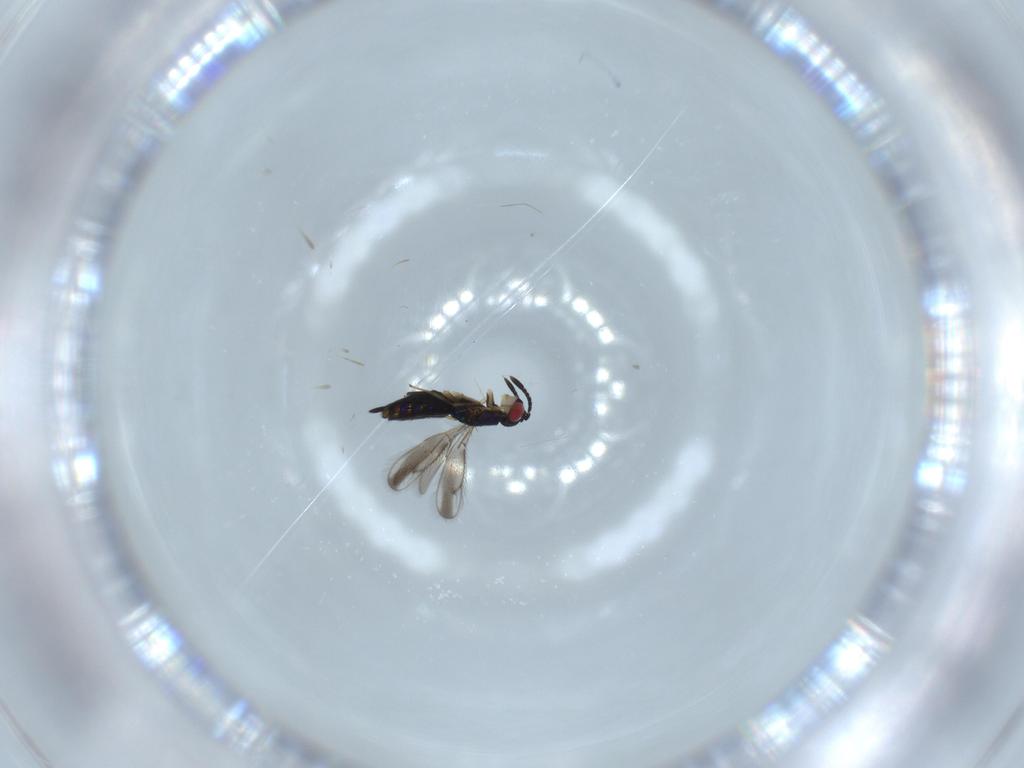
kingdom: Animalia
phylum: Arthropoda
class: Insecta
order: Hymenoptera
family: Pteromalidae
